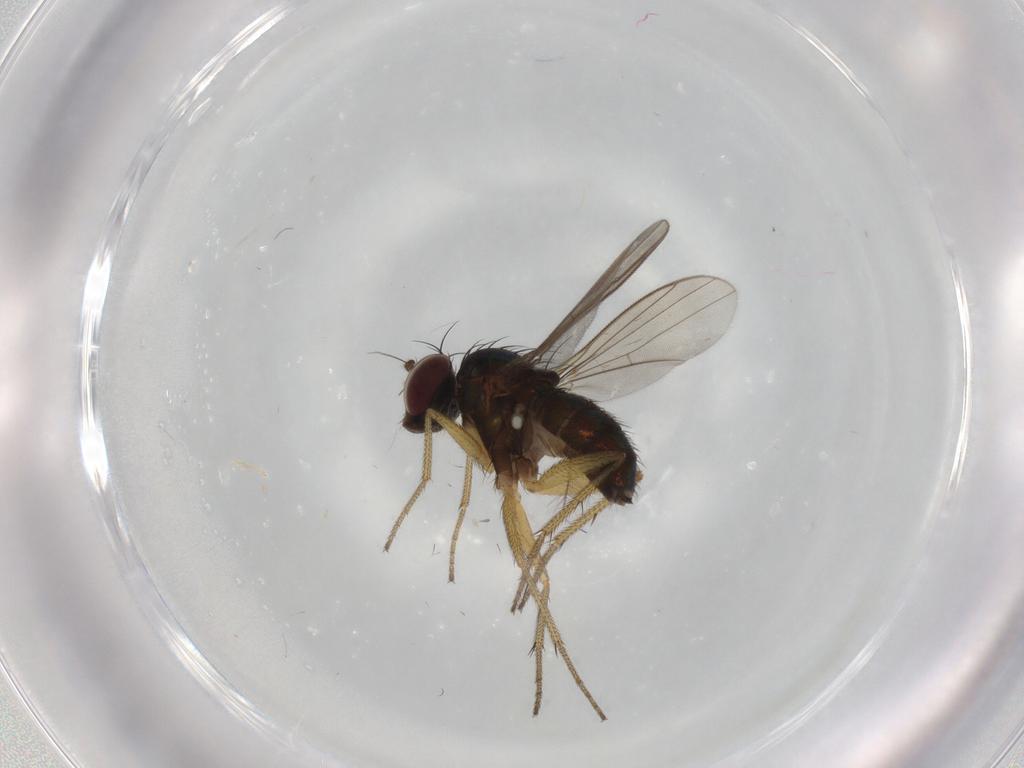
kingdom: Animalia
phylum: Arthropoda
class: Insecta
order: Diptera
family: Dolichopodidae
